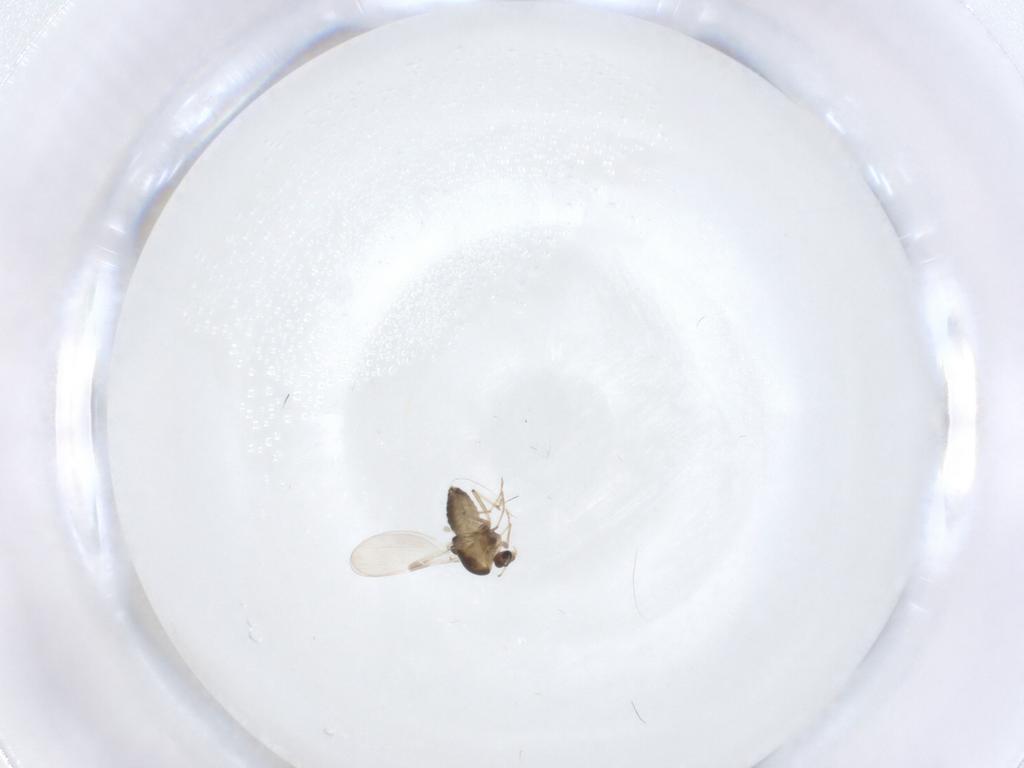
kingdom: Animalia
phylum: Arthropoda
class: Insecta
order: Diptera
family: Chironomidae
